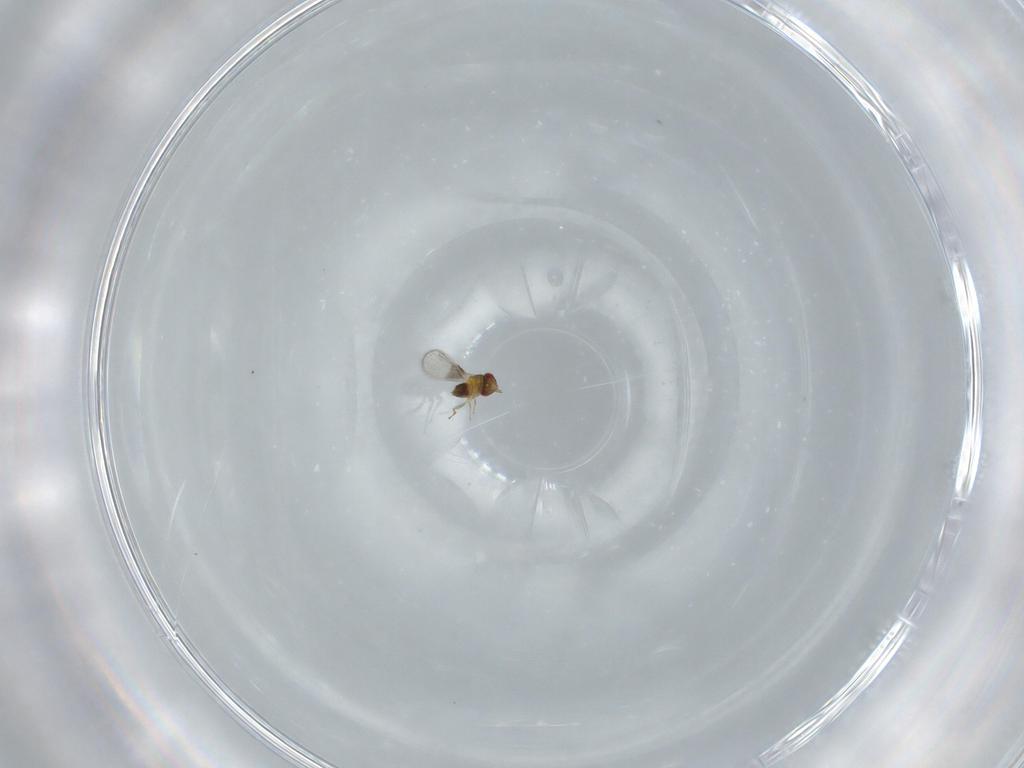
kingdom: Animalia
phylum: Arthropoda
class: Insecta
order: Hymenoptera
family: Trichogrammatidae
